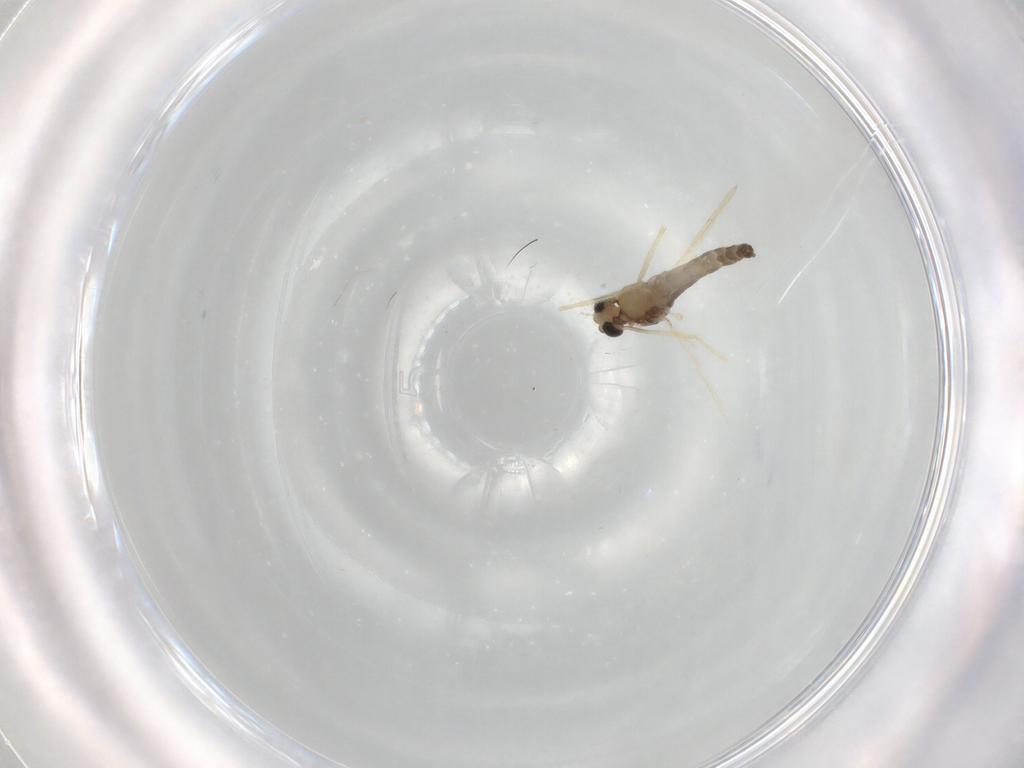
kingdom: Animalia
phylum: Arthropoda
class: Insecta
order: Diptera
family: Chironomidae
